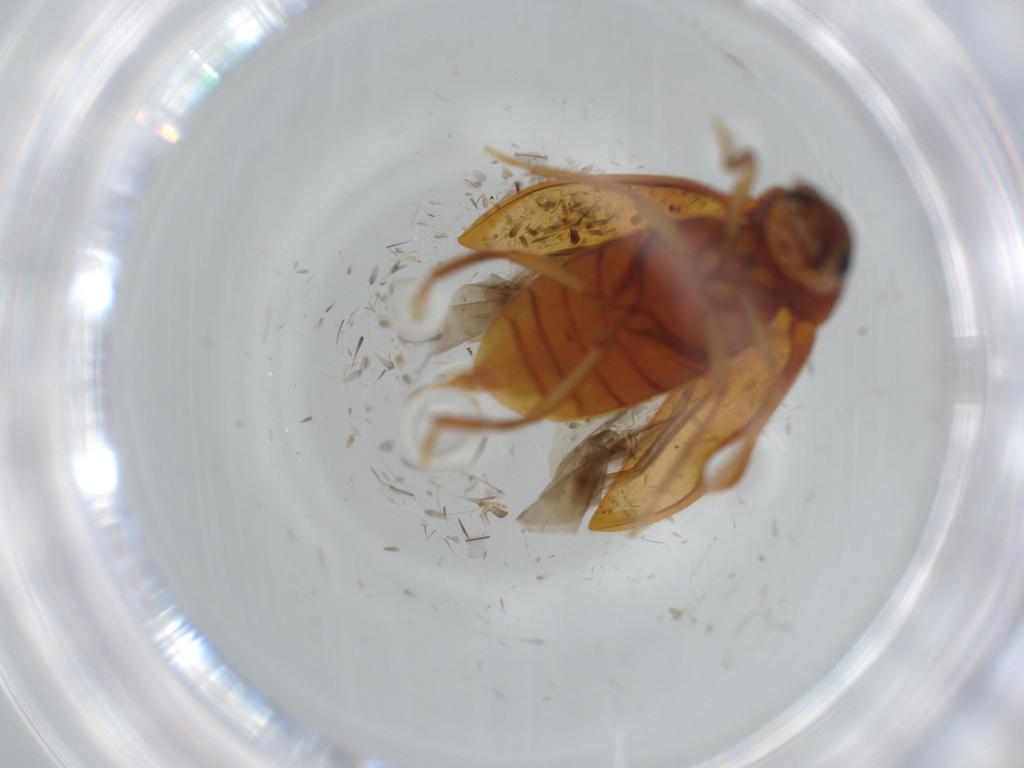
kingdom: Animalia
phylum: Arthropoda
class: Insecta
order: Coleoptera
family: Ptilodactylidae
